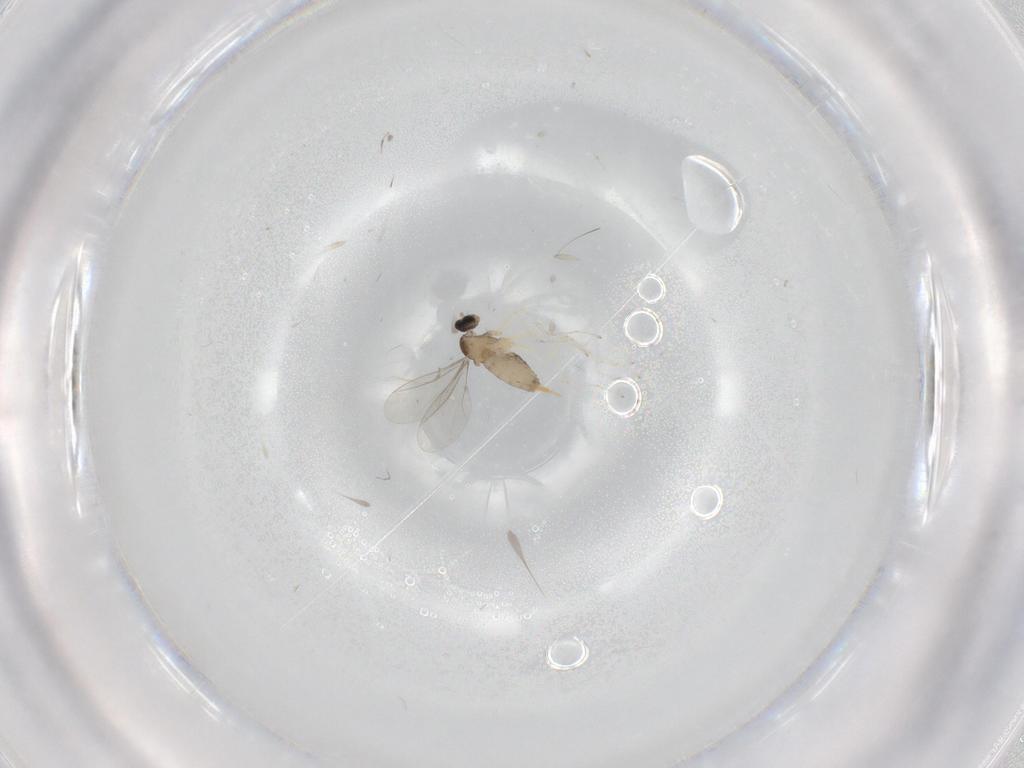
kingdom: Animalia
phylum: Arthropoda
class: Insecta
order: Diptera
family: Cecidomyiidae
